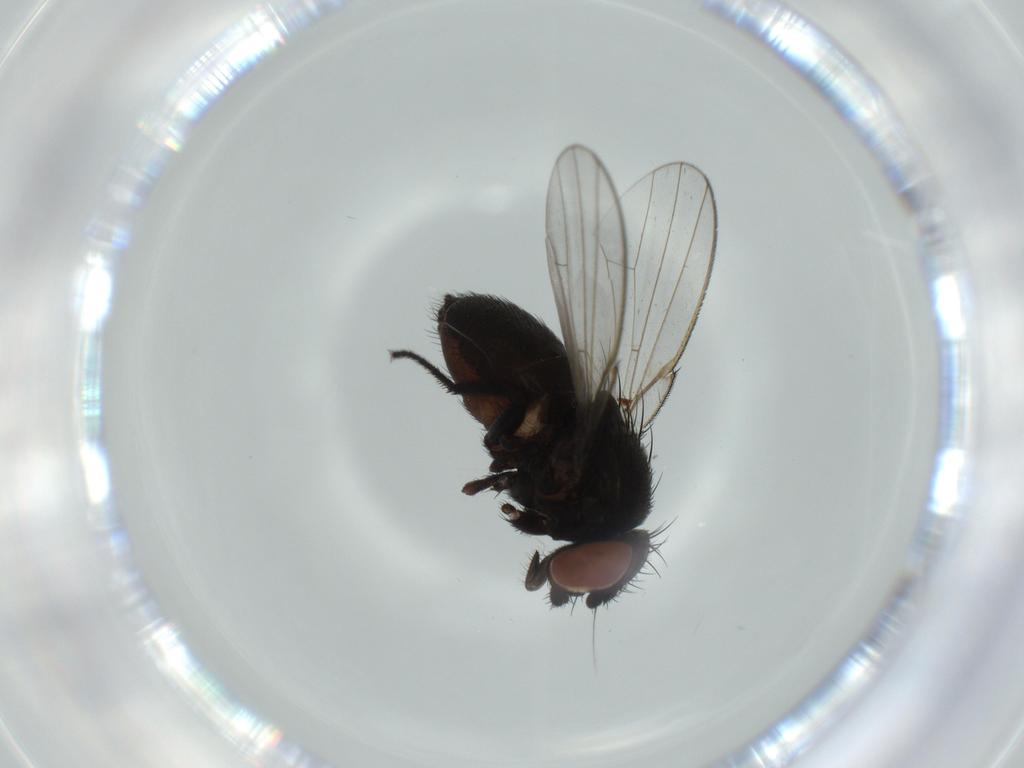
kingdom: Animalia
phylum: Arthropoda
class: Insecta
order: Diptera
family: Milichiidae
